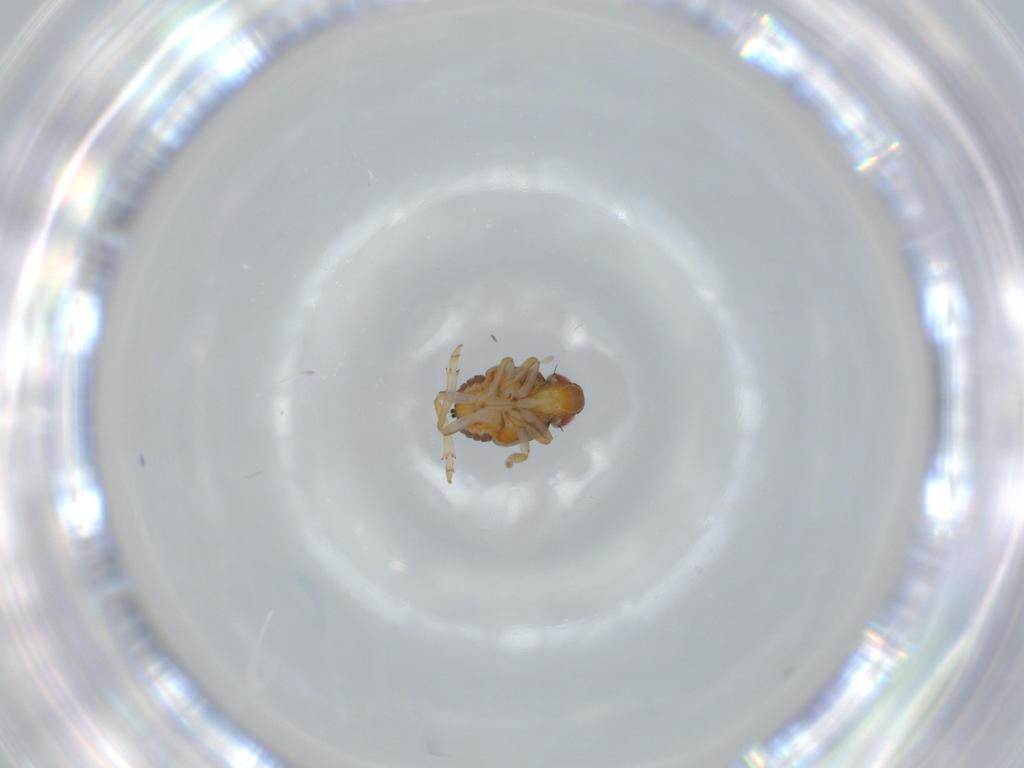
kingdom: Animalia
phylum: Arthropoda
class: Insecta
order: Hemiptera
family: Issidae
